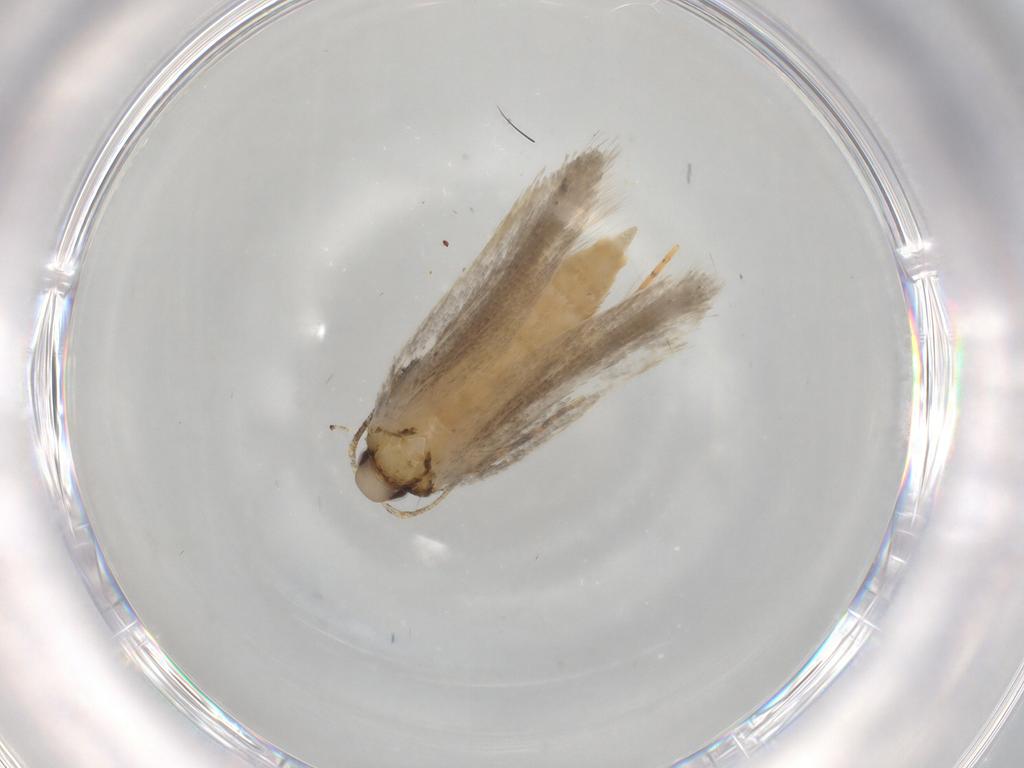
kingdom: Animalia
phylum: Arthropoda
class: Insecta
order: Lepidoptera
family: Autostichidae
